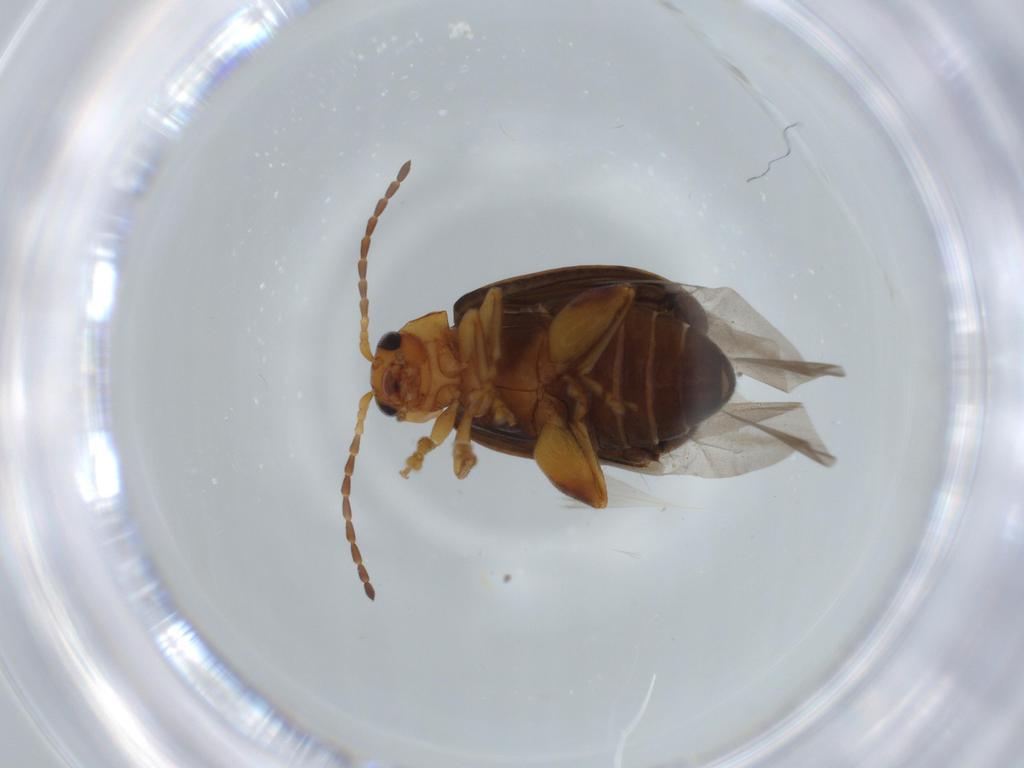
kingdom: Animalia
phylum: Arthropoda
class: Insecta
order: Coleoptera
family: Chrysomelidae
